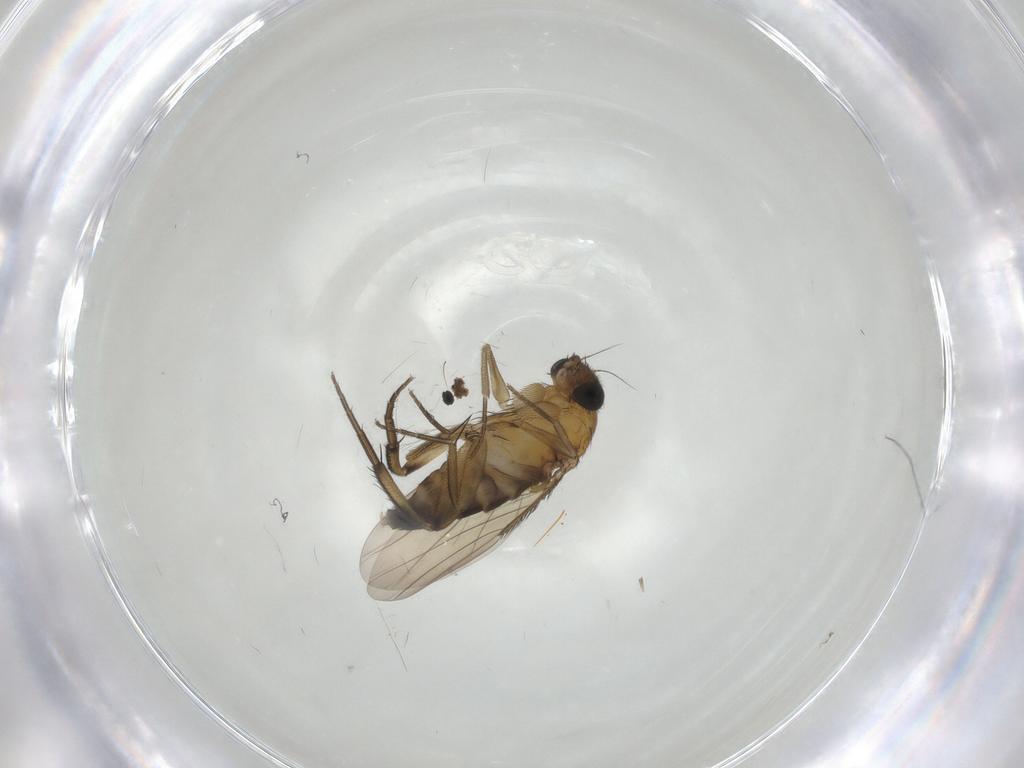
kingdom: Animalia
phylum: Arthropoda
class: Insecta
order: Diptera
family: Phoridae
